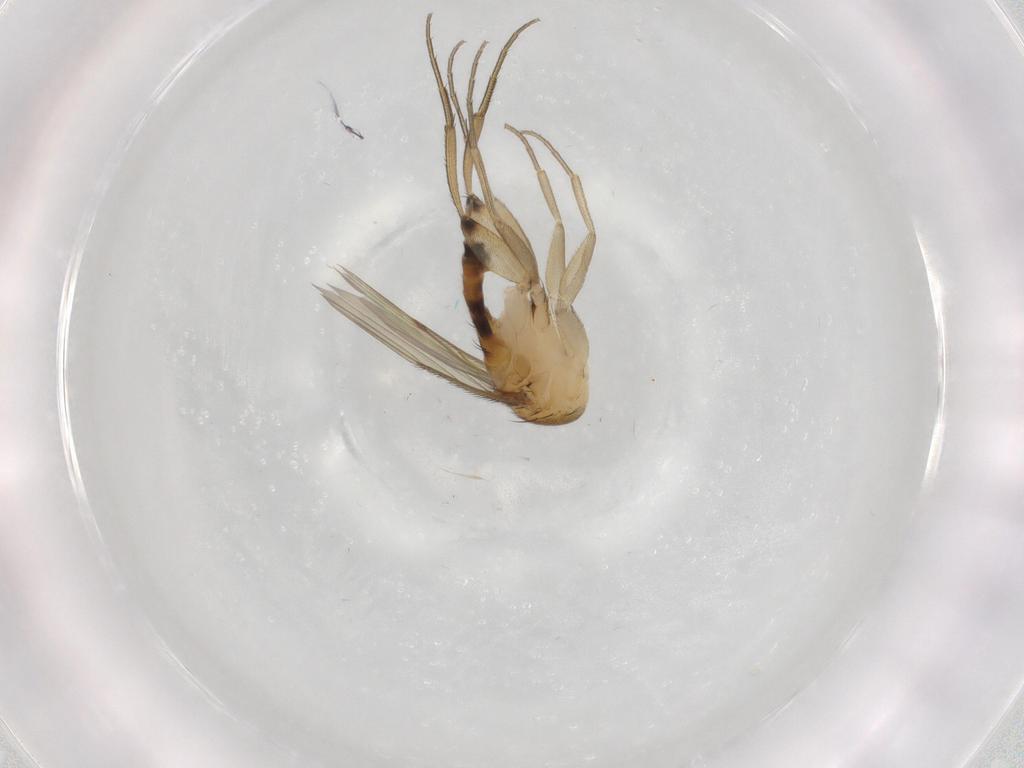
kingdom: Animalia
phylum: Arthropoda
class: Insecta
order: Diptera
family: Phoridae
